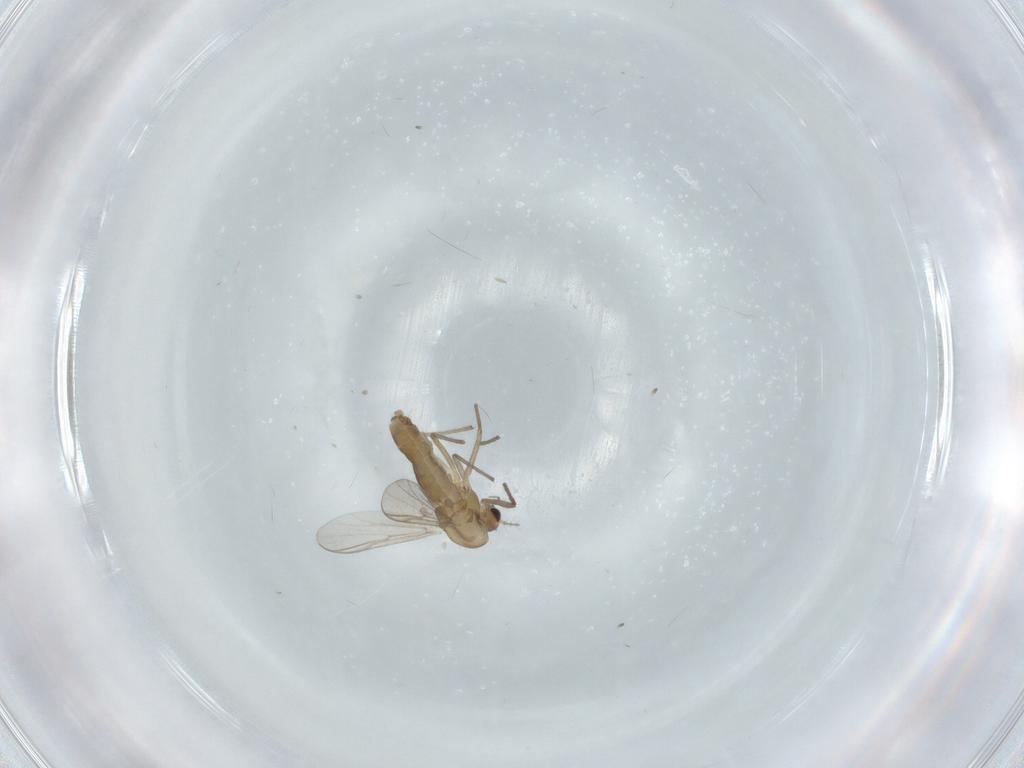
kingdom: Animalia
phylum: Arthropoda
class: Insecta
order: Diptera
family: Chironomidae
